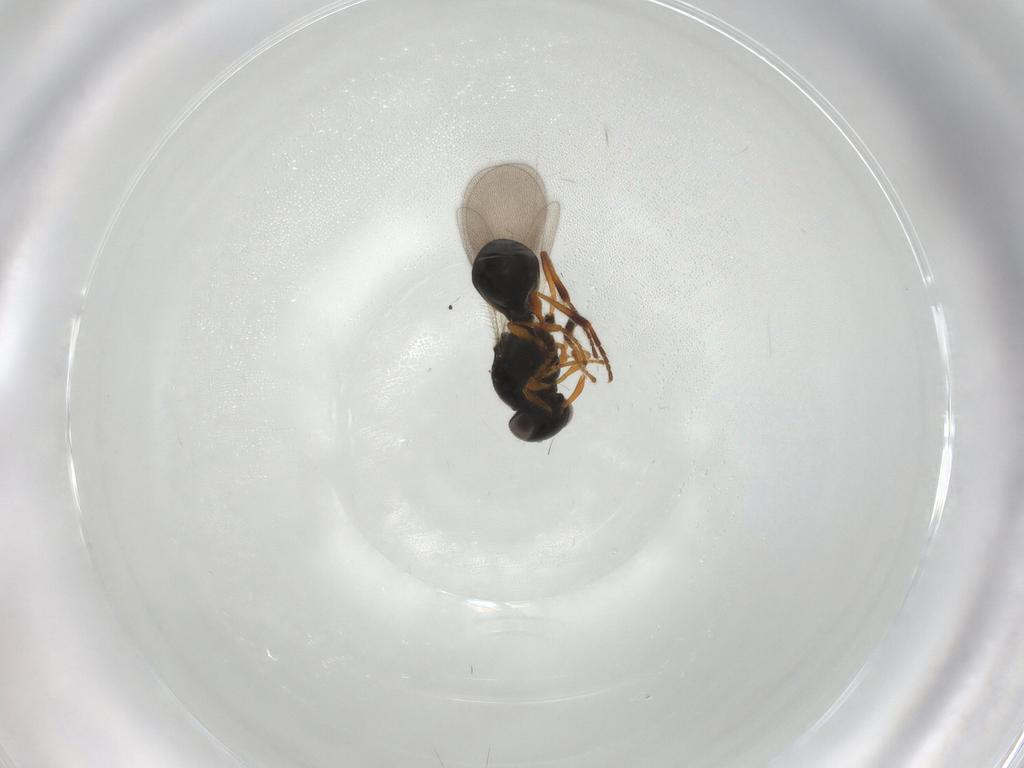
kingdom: Animalia
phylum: Arthropoda
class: Insecta
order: Hymenoptera
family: Platygastridae
